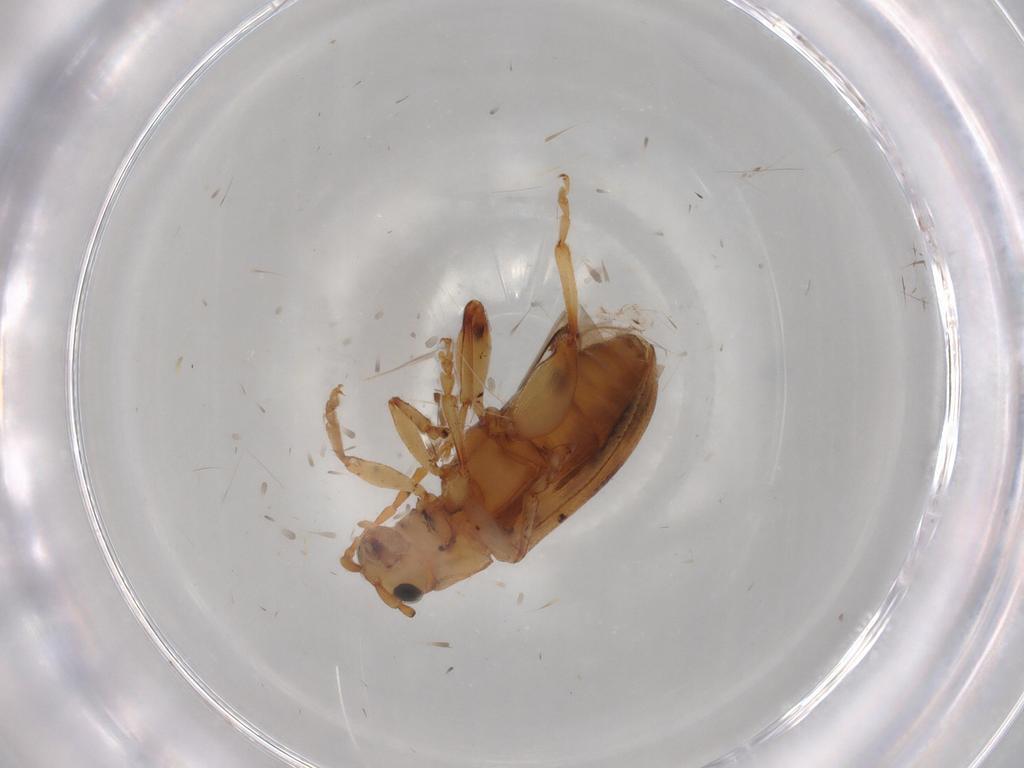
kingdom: Animalia
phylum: Arthropoda
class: Insecta
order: Coleoptera
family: Chrysomelidae
